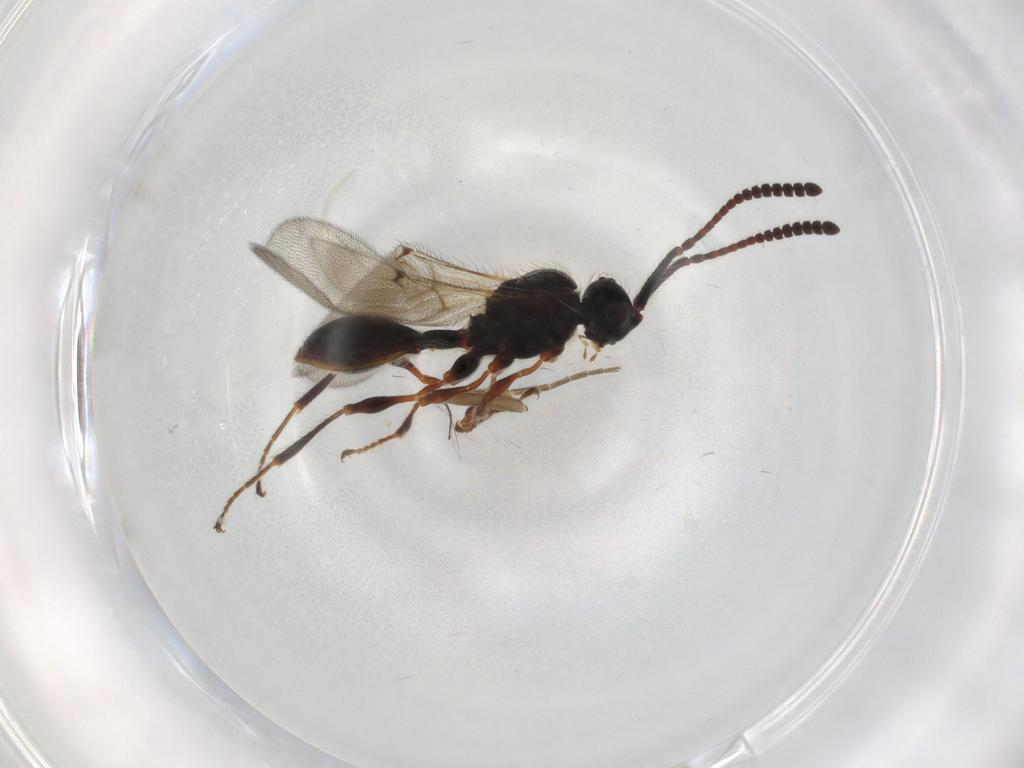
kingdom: Animalia
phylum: Arthropoda
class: Insecta
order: Hymenoptera
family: Diapriidae
